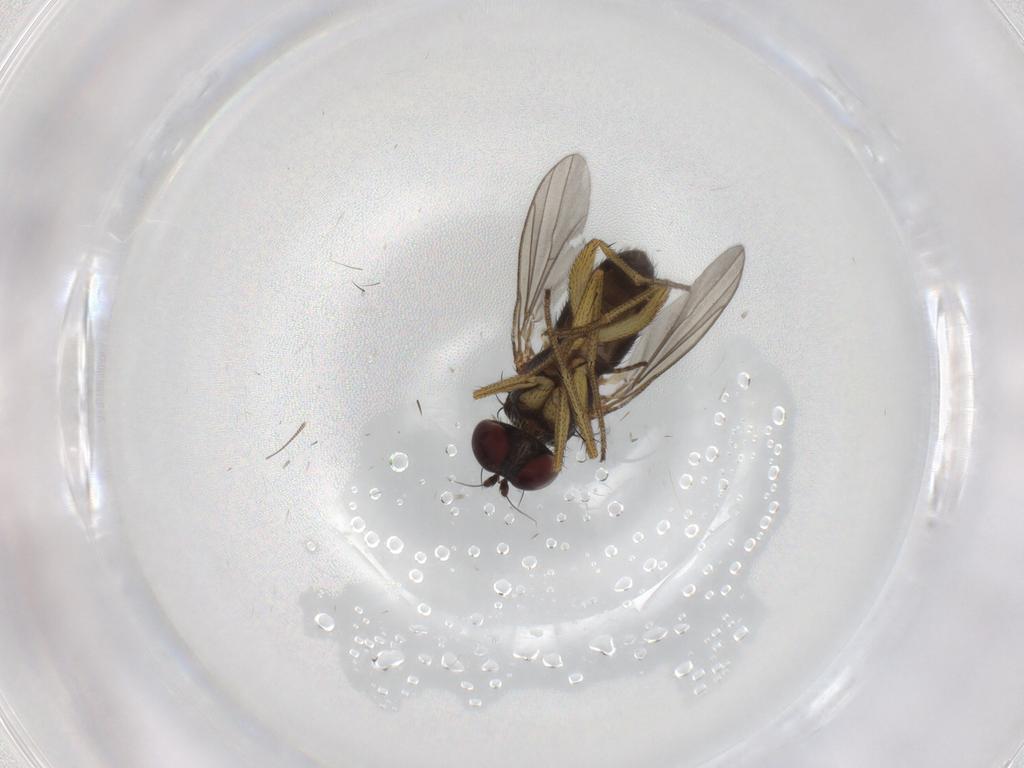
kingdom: Animalia
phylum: Arthropoda
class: Insecta
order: Diptera
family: Dolichopodidae
